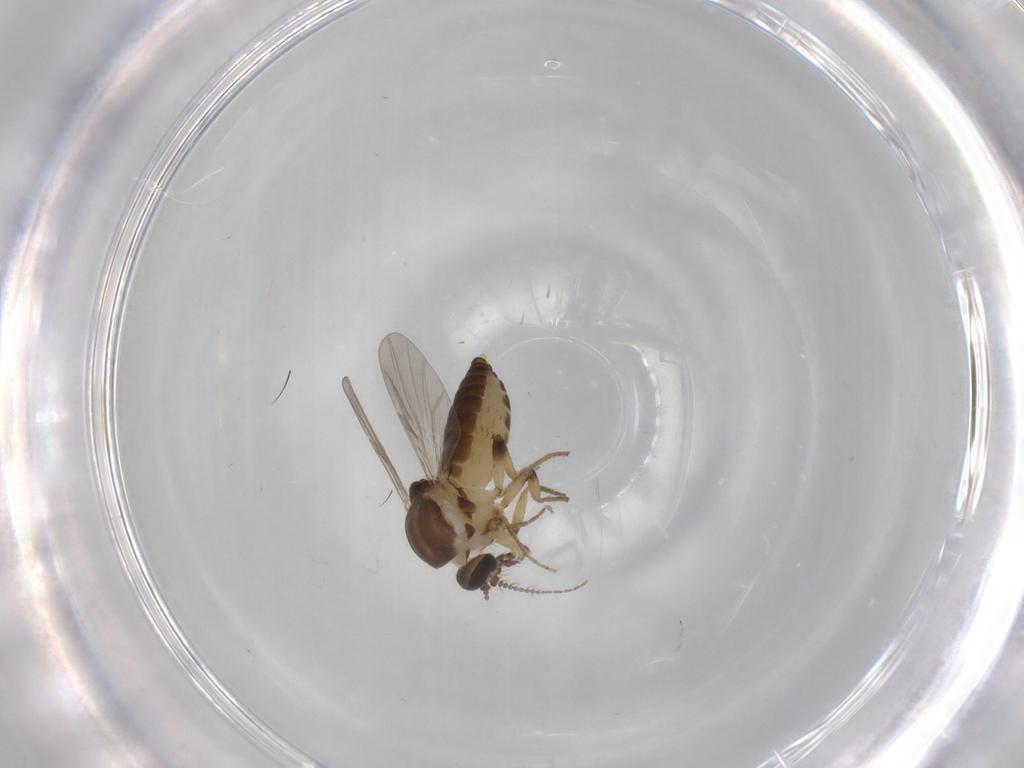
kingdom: Animalia
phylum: Arthropoda
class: Insecta
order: Diptera
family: Ceratopogonidae
